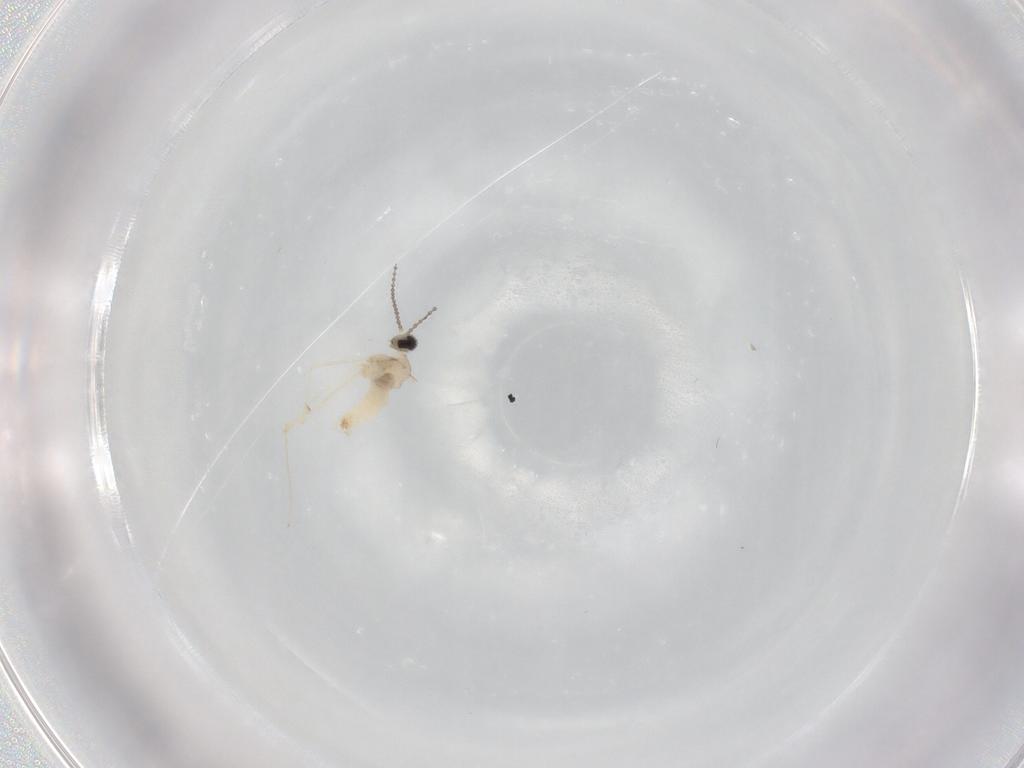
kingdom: Animalia
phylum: Arthropoda
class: Insecta
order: Diptera
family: Cecidomyiidae
